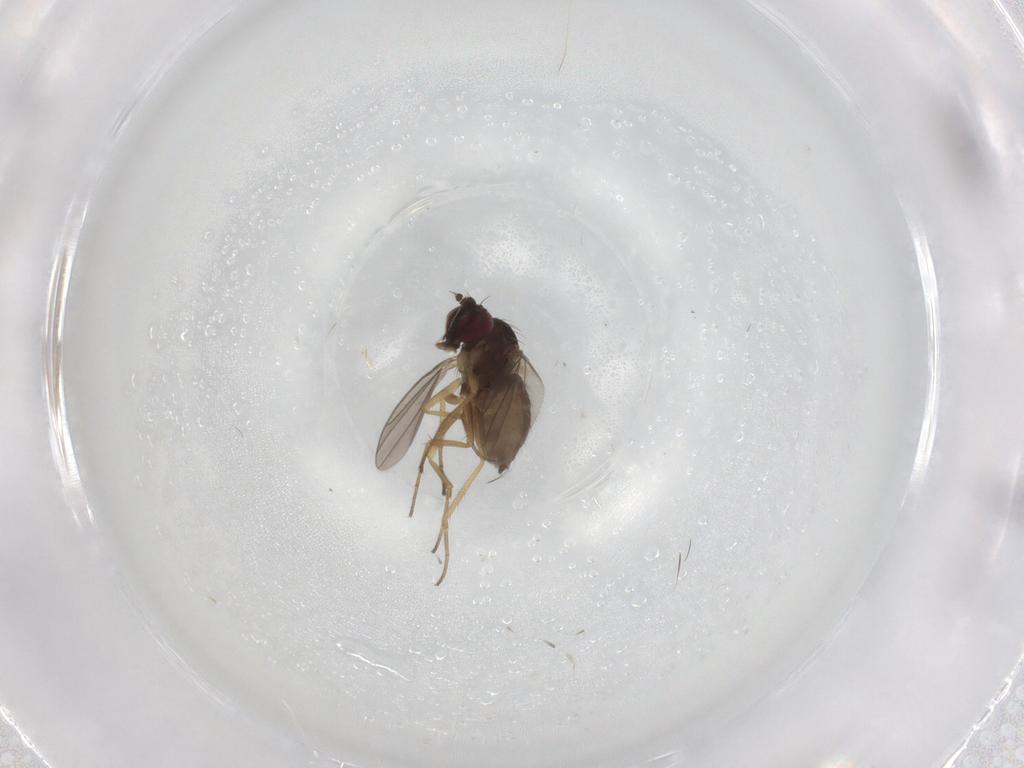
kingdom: Animalia
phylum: Arthropoda
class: Insecta
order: Diptera
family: Dolichopodidae
